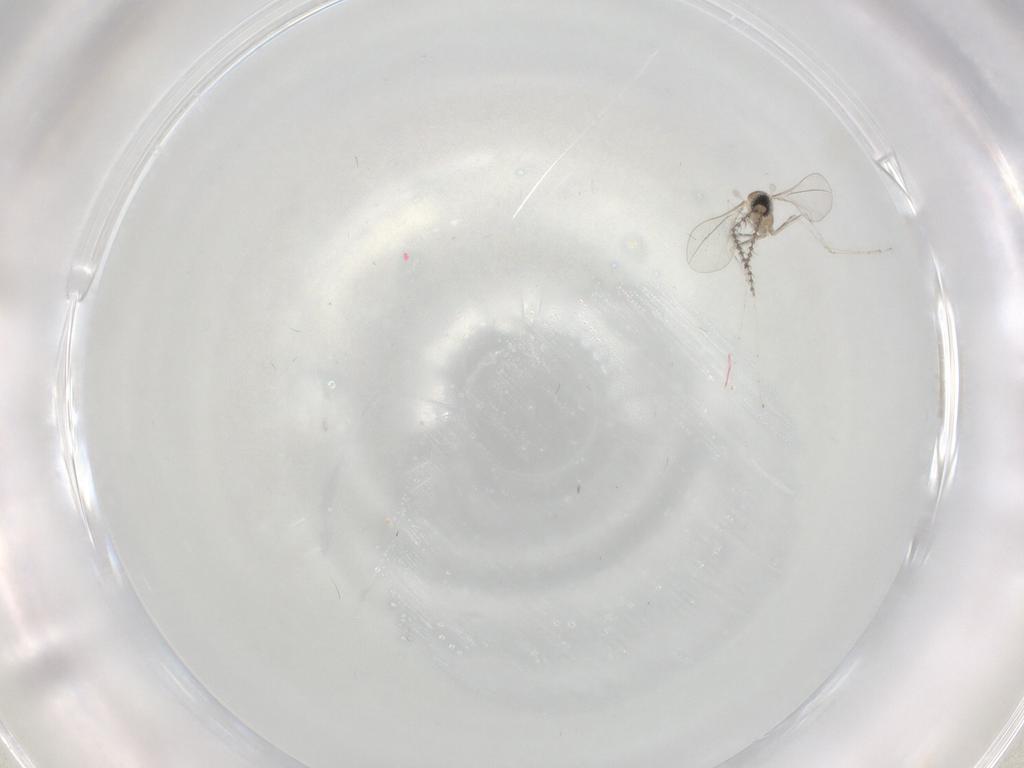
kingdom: Animalia
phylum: Arthropoda
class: Insecta
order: Diptera
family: Cecidomyiidae
